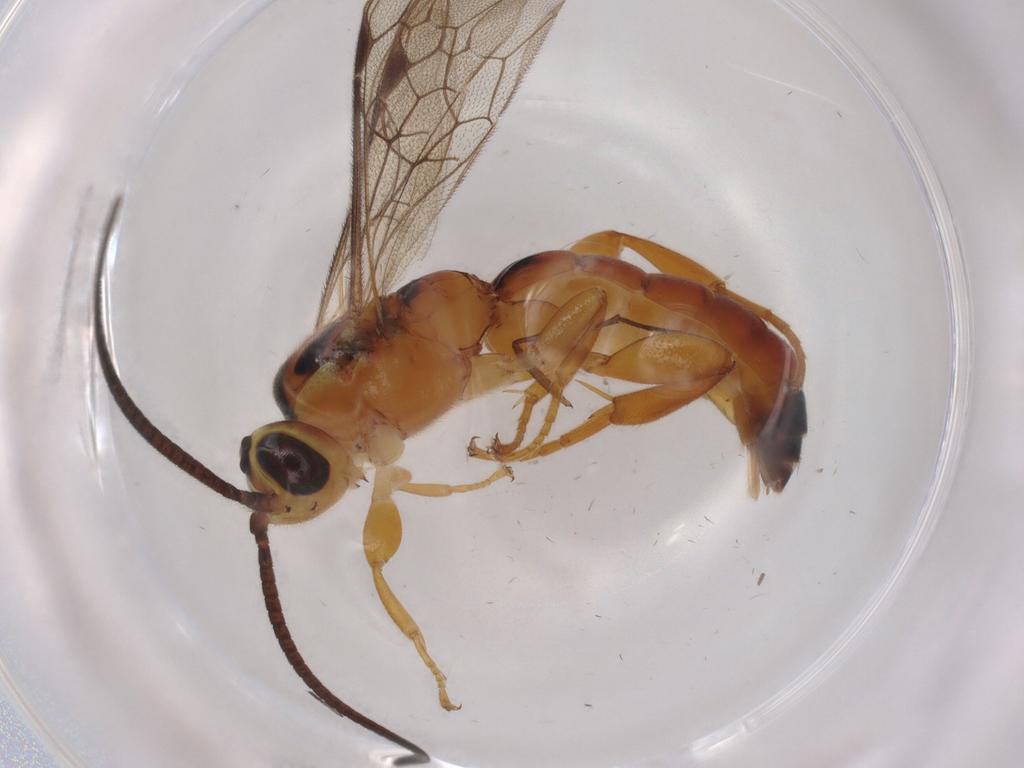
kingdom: Animalia
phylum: Arthropoda
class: Insecta
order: Hymenoptera
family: Ichneumonidae
